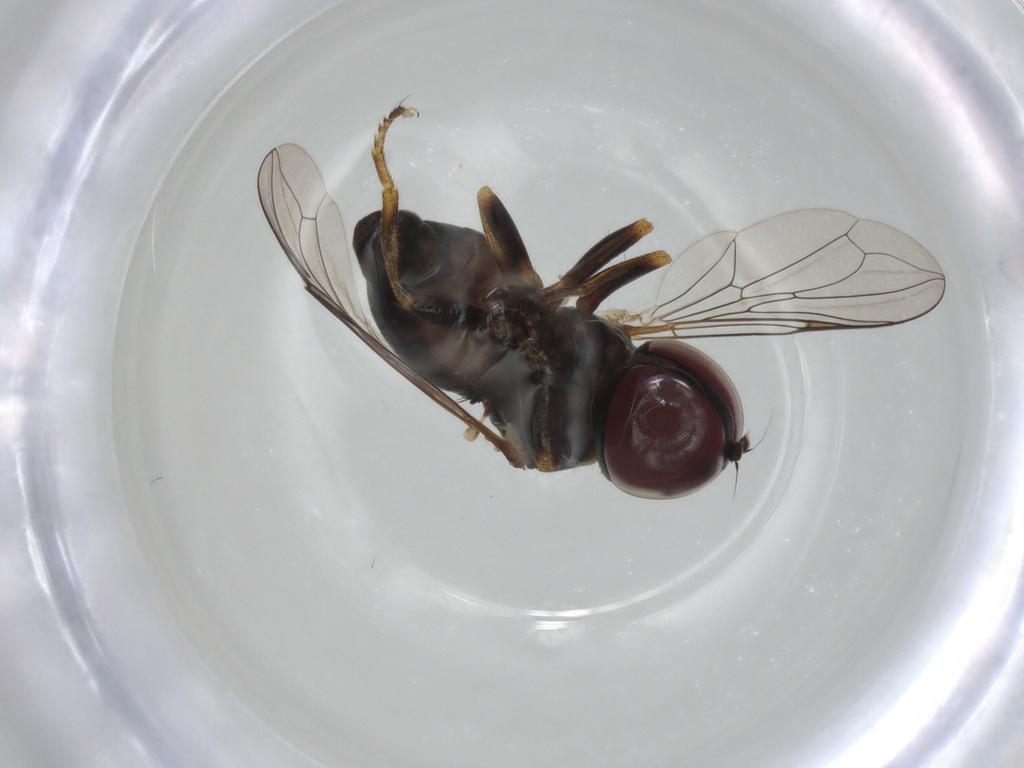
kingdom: Animalia
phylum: Arthropoda
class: Insecta
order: Diptera
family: Pipunculidae
